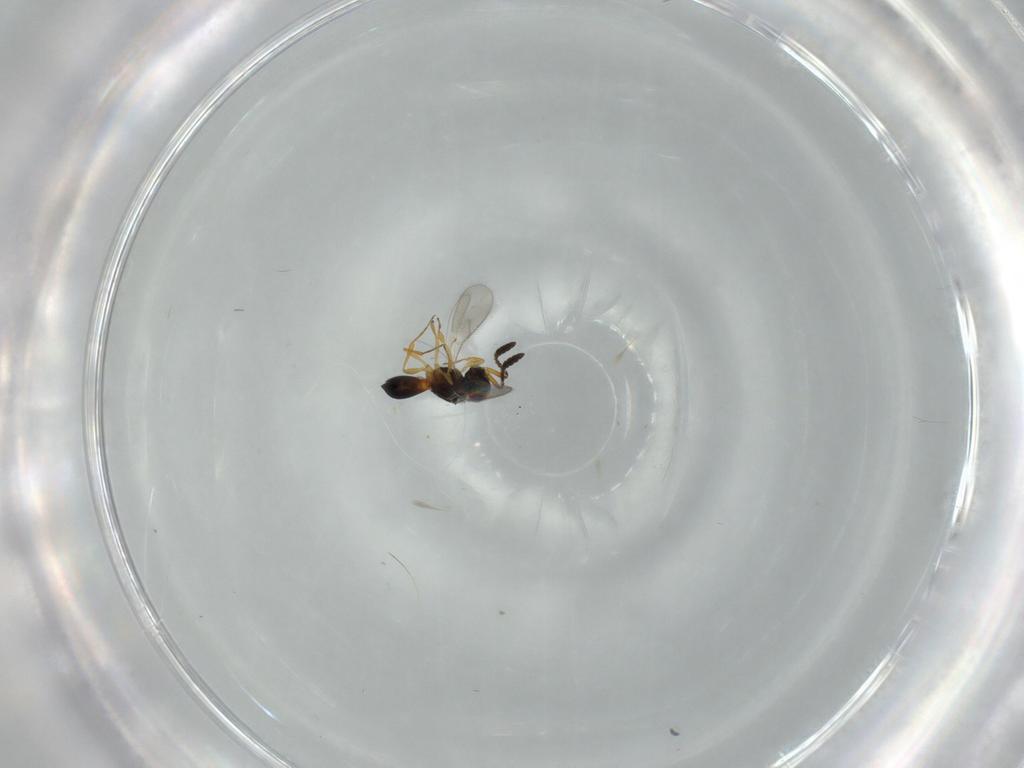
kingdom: Animalia
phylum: Arthropoda
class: Insecta
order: Hymenoptera
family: Scelionidae
